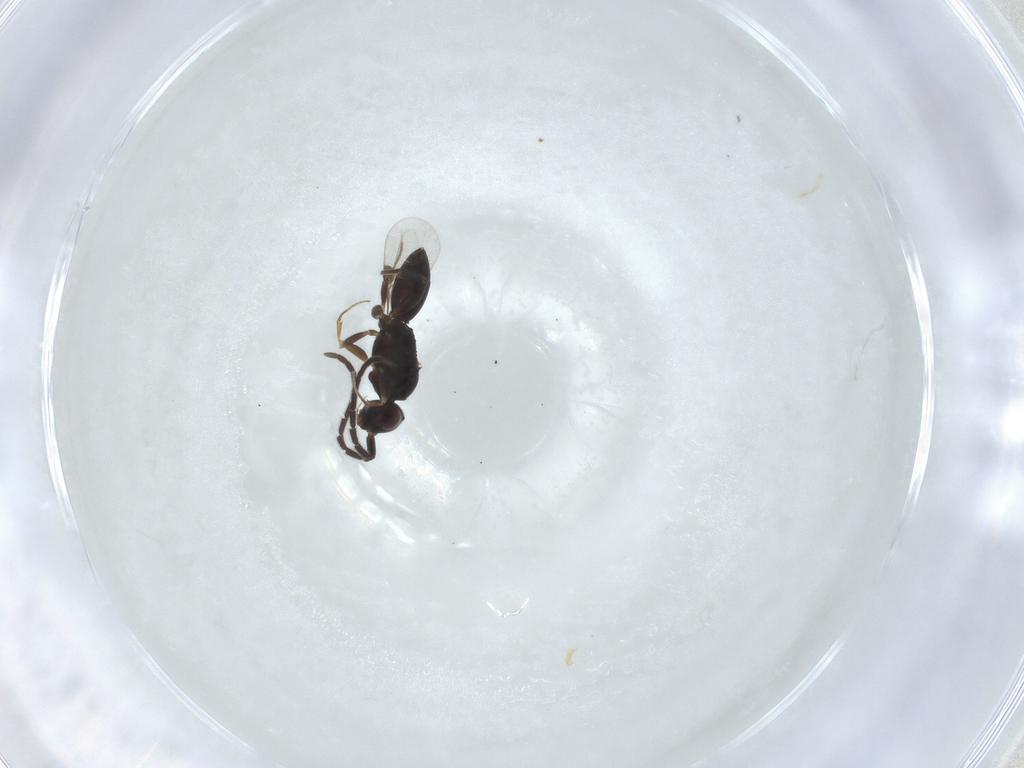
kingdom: Animalia
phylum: Arthropoda
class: Insecta
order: Hymenoptera
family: Megaspilidae
